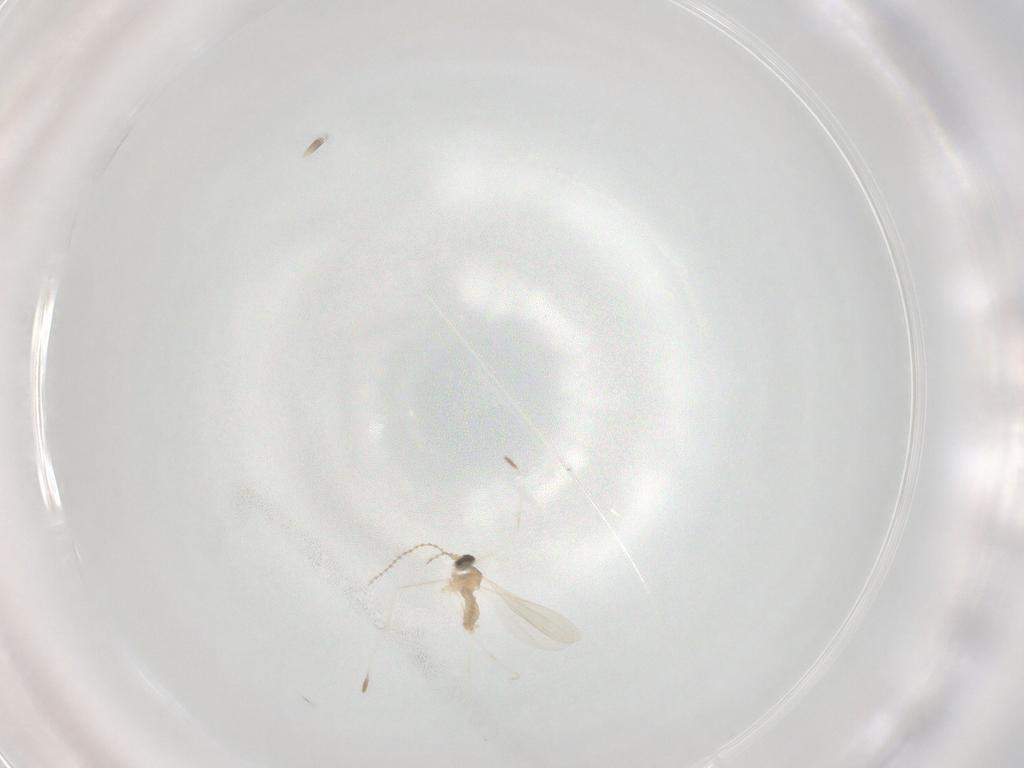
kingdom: Animalia
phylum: Arthropoda
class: Insecta
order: Diptera
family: Cecidomyiidae
